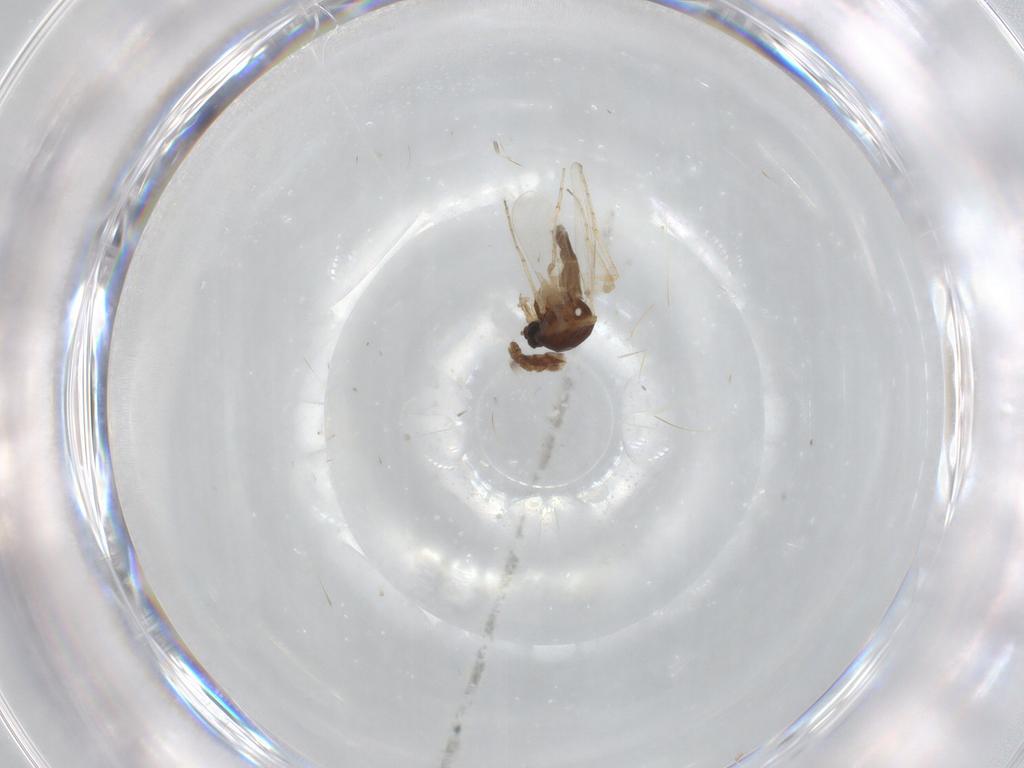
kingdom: Animalia
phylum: Arthropoda
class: Insecta
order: Diptera
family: Ceratopogonidae
